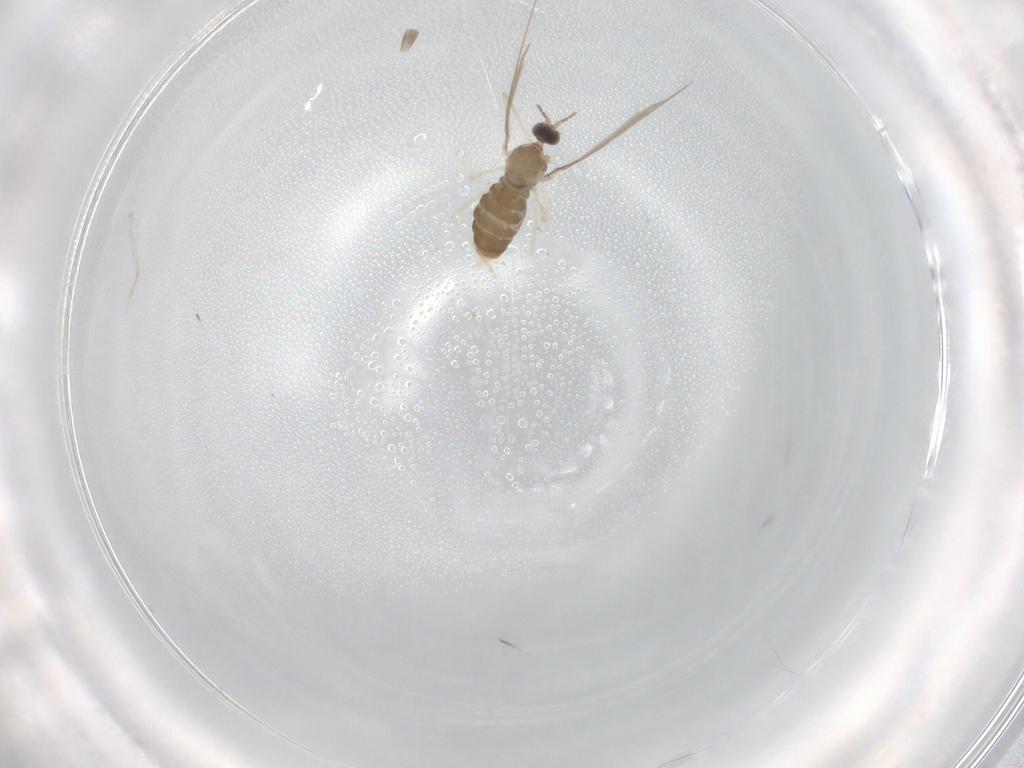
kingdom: Animalia
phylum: Arthropoda
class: Insecta
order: Diptera
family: Cecidomyiidae
